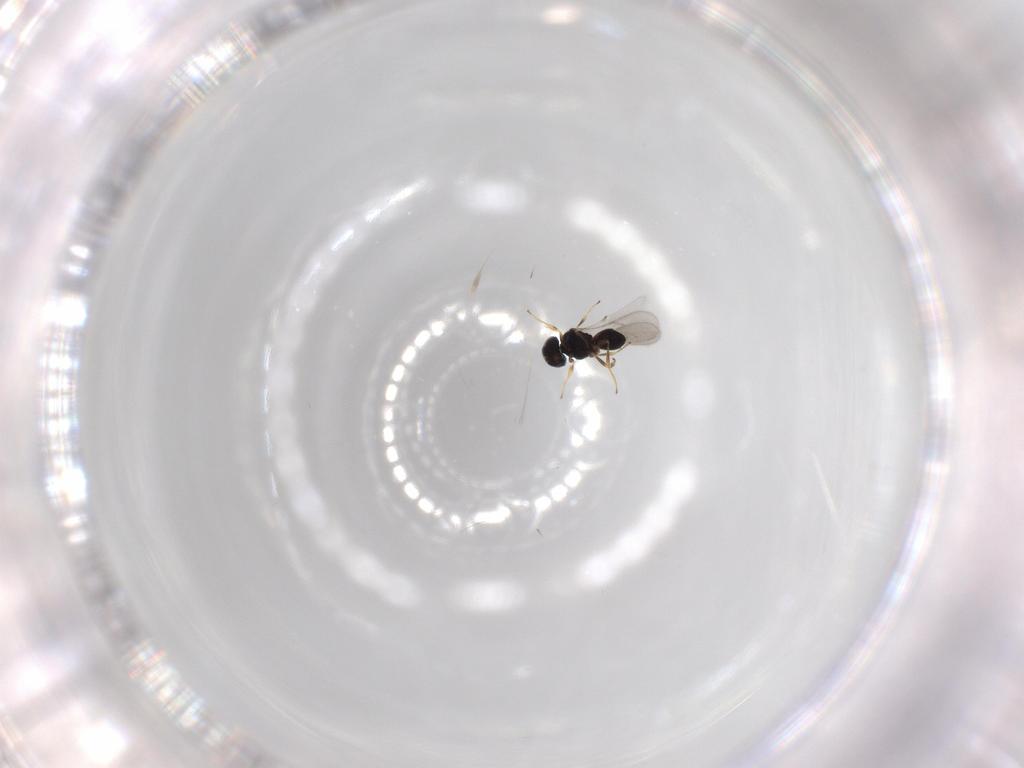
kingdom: Animalia
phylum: Arthropoda
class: Insecta
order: Hymenoptera
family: Scelionidae
